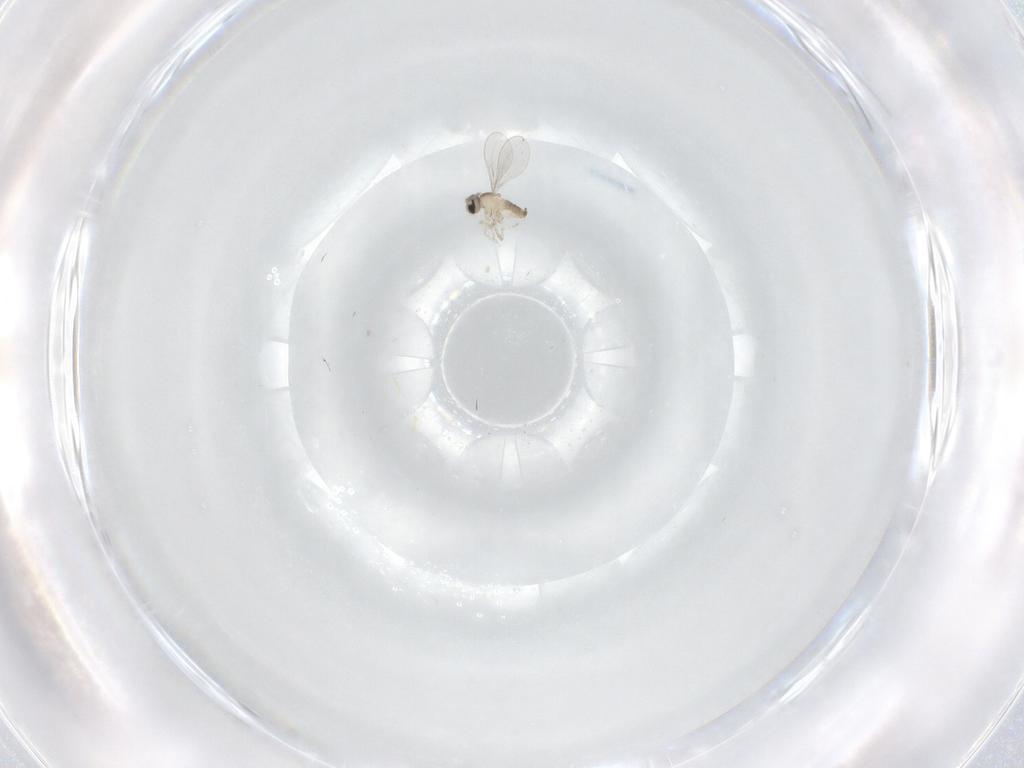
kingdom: Animalia
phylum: Arthropoda
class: Insecta
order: Diptera
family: Cecidomyiidae
